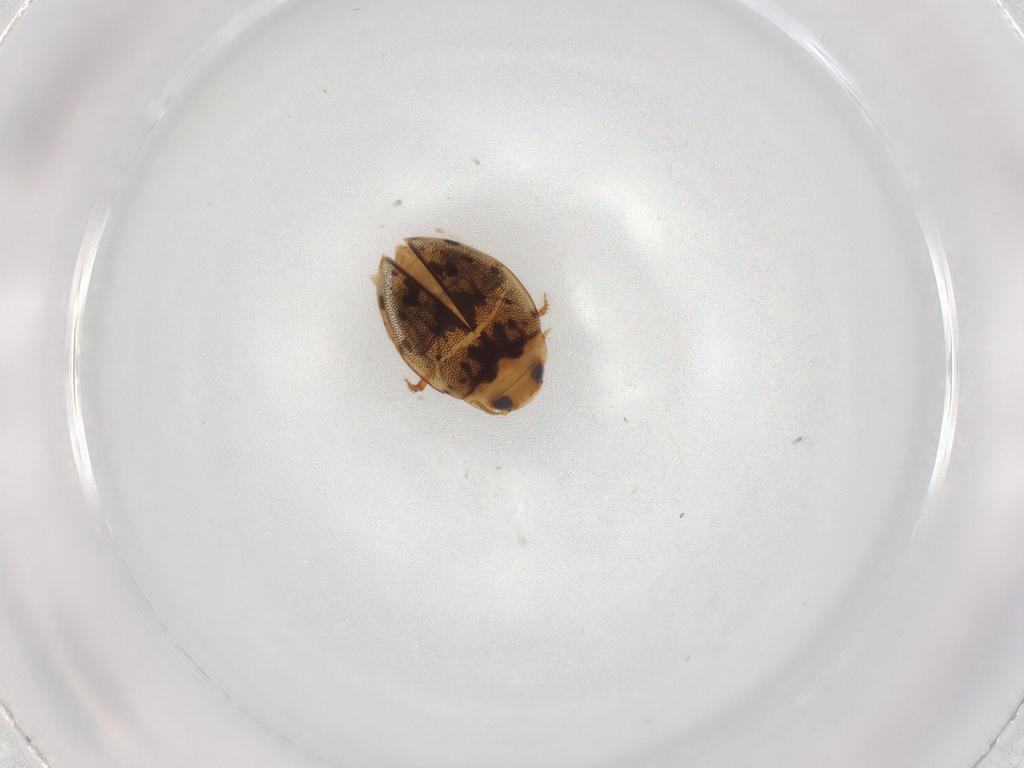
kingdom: Animalia
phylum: Arthropoda
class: Insecta
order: Coleoptera
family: Dytiscidae
